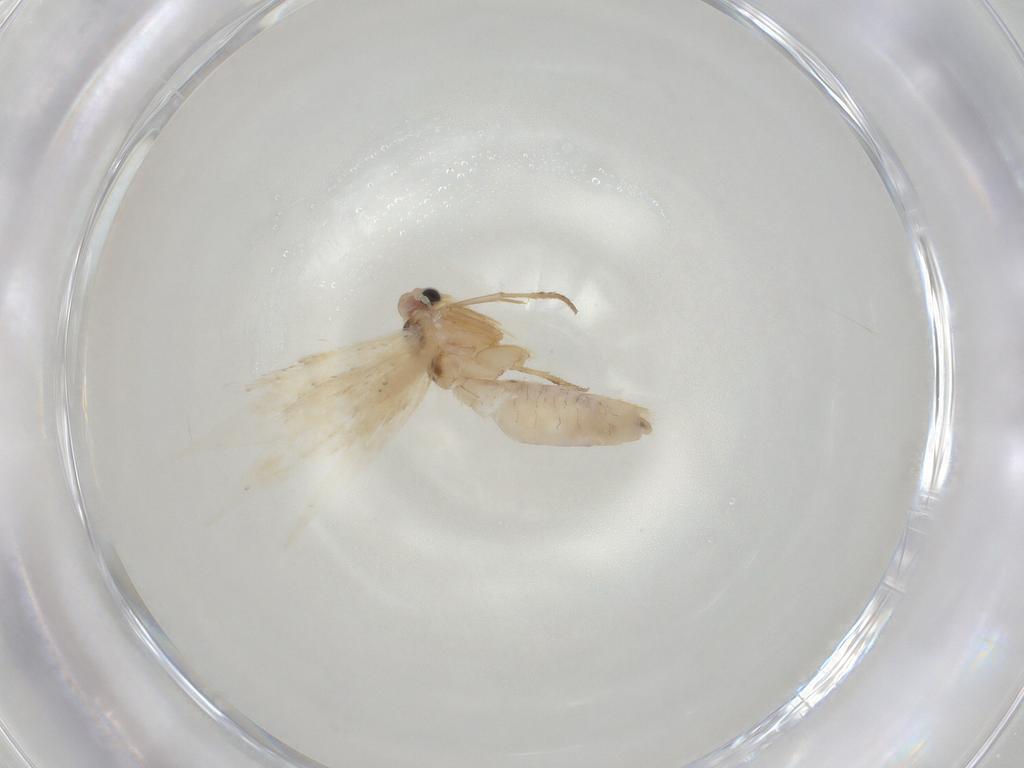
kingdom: Animalia
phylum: Arthropoda
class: Insecta
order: Lepidoptera
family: Gelechiidae
